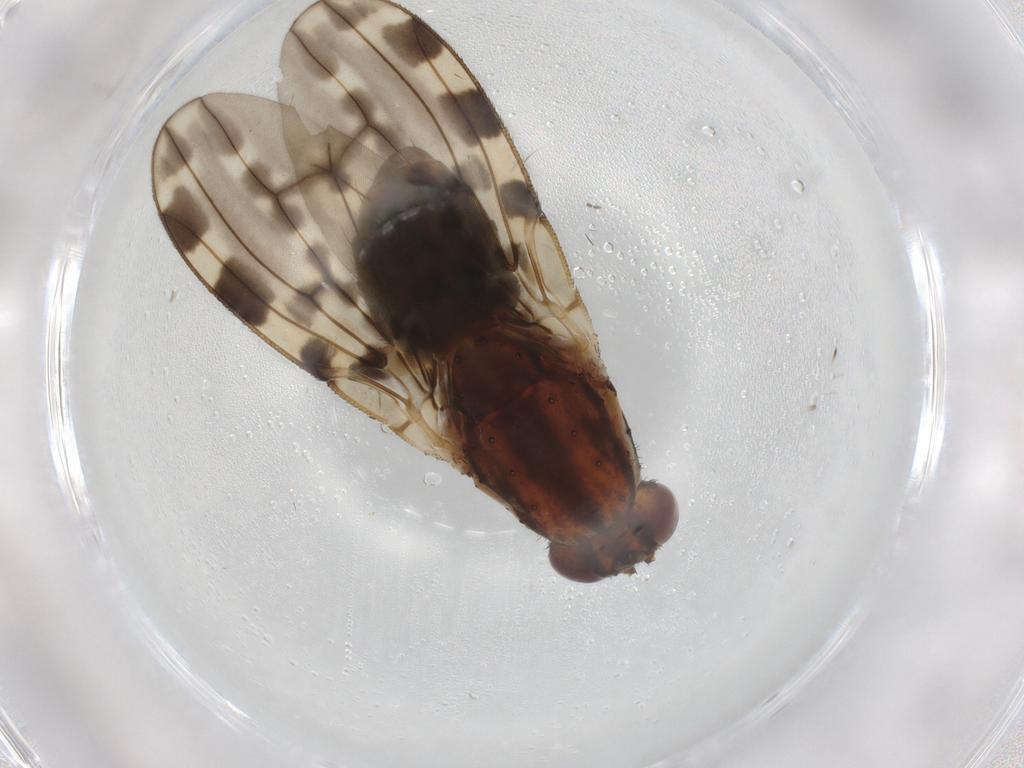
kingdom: Animalia
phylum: Arthropoda
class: Insecta
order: Diptera
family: Heleomyzidae
